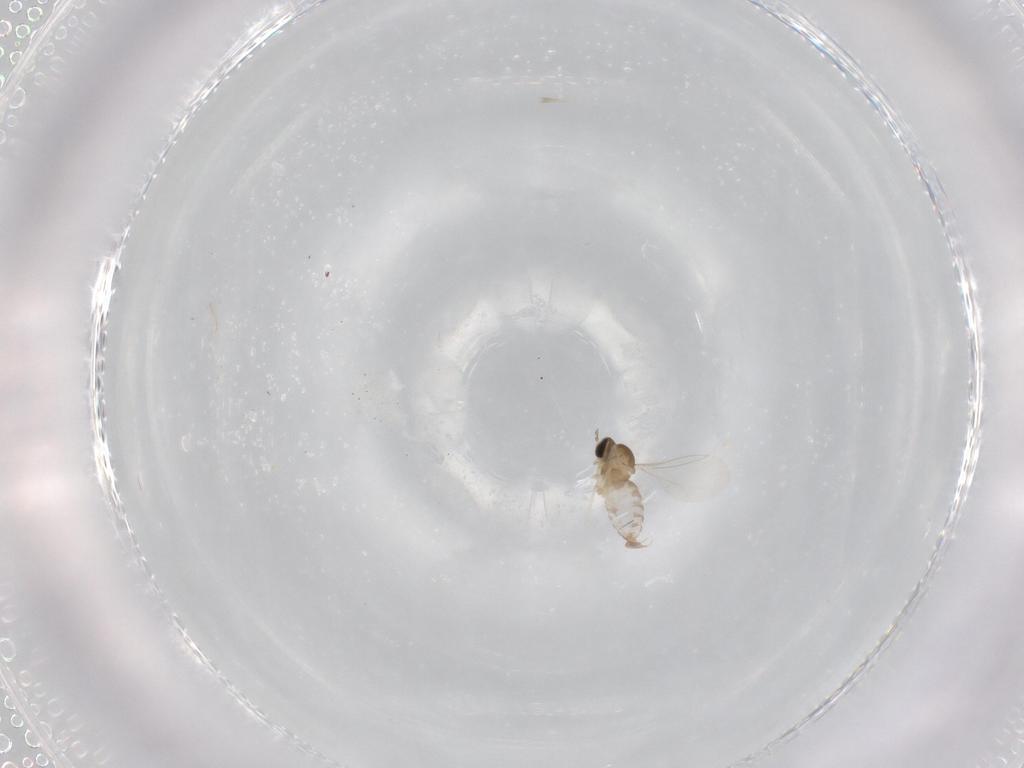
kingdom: Animalia
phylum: Arthropoda
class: Insecta
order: Diptera
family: Cecidomyiidae
